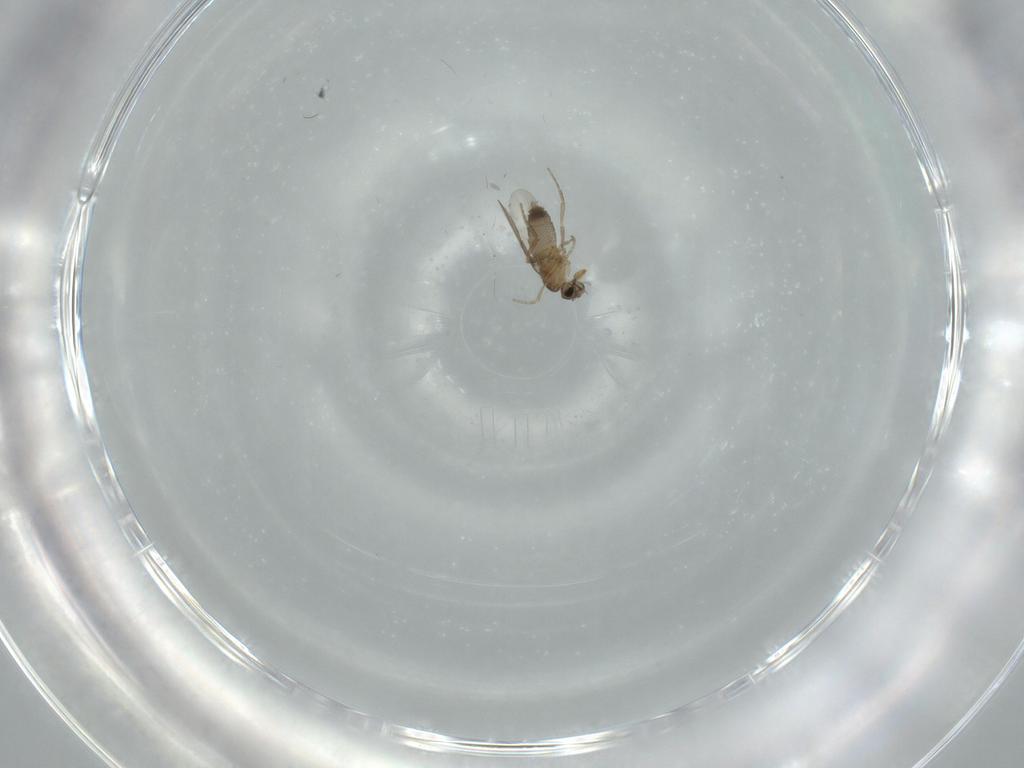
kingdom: Animalia
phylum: Arthropoda
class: Insecta
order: Diptera
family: Phoridae
